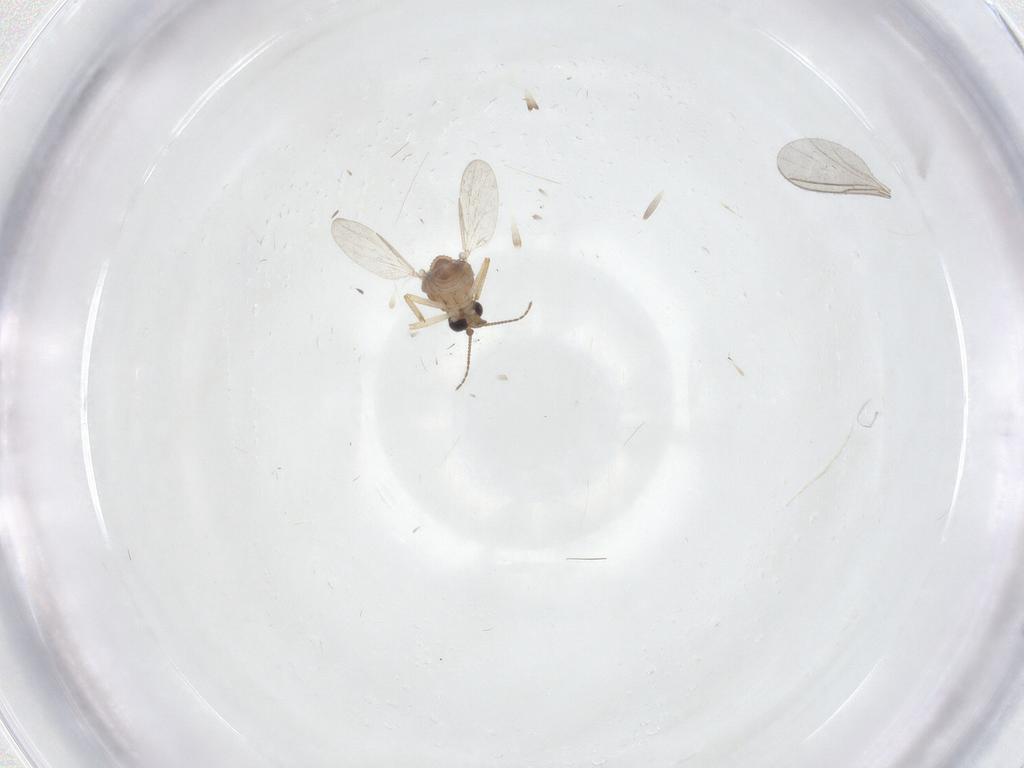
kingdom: Animalia
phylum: Arthropoda
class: Insecta
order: Diptera
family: Ceratopogonidae
